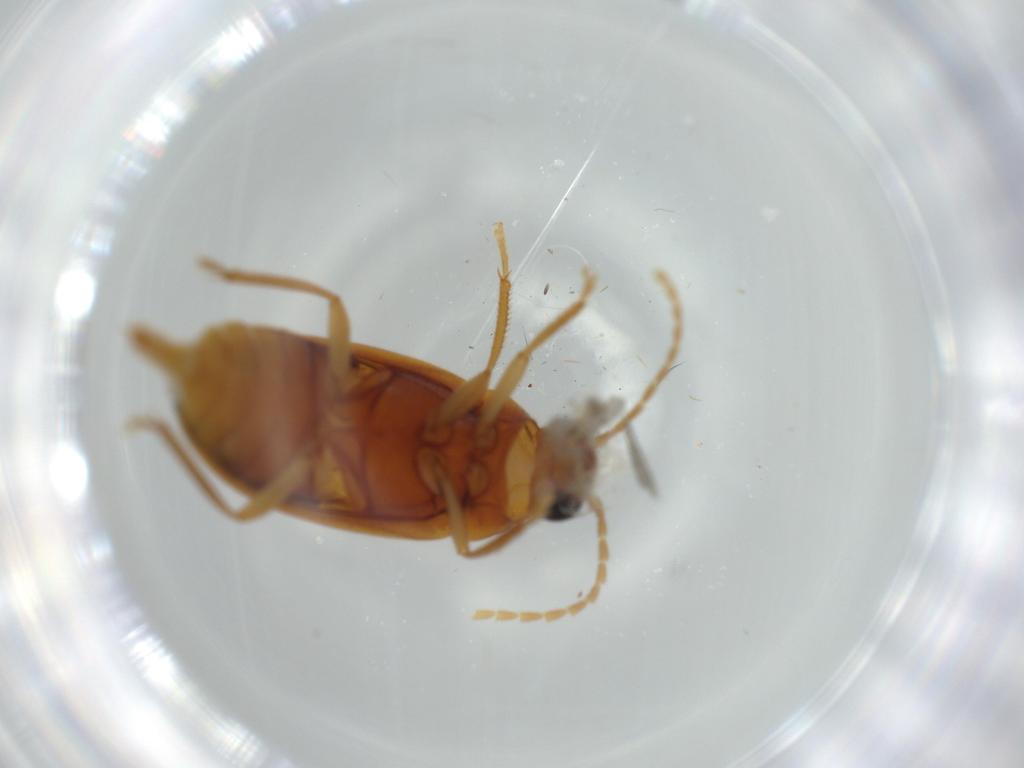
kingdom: Animalia
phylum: Arthropoda
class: Insecta
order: Coleoptera
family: Ptilodactylidae
